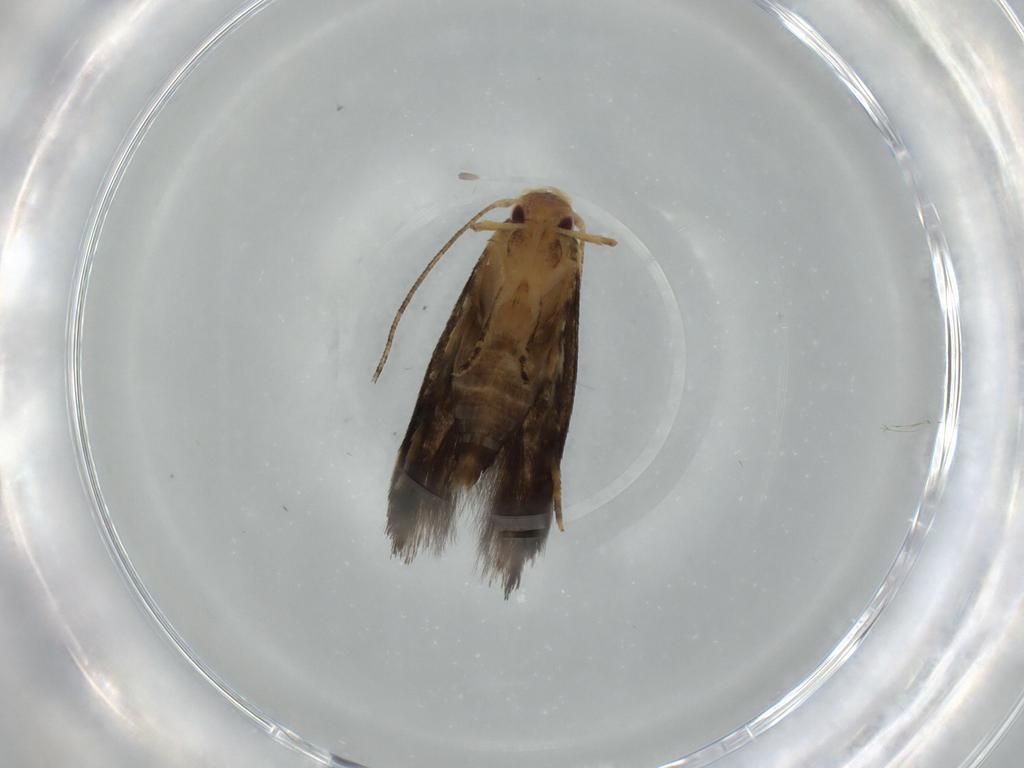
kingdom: Animalia
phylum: Arthropoda
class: Insecta
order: Lepidoptera
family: Momphidae
